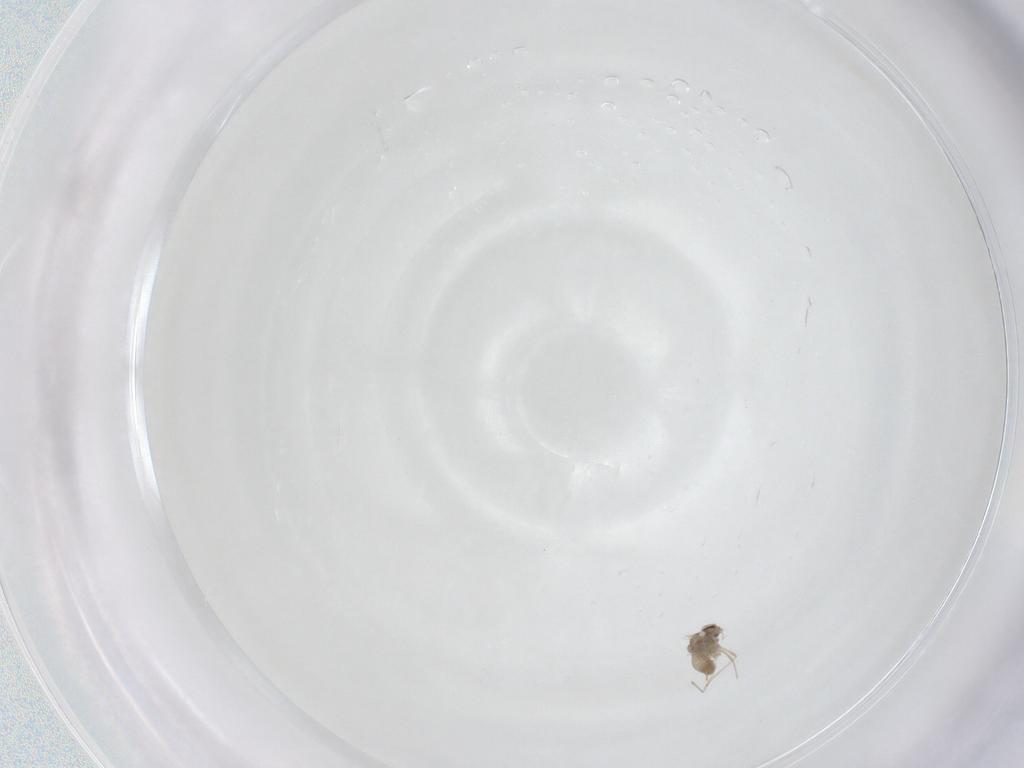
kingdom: Animalia
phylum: Arthropoda
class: Insecta
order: Diptera
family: Cecidomyiidae
